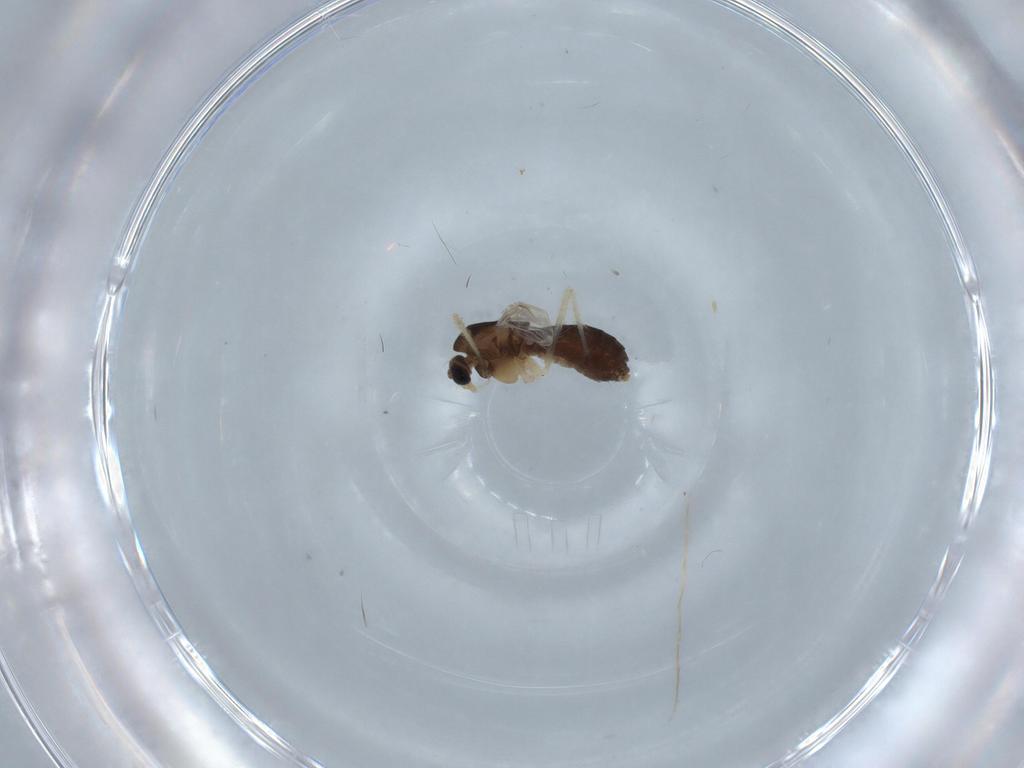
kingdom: Animalia
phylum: Arthropoda
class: Insecta
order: Diptera
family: Chironomidae
